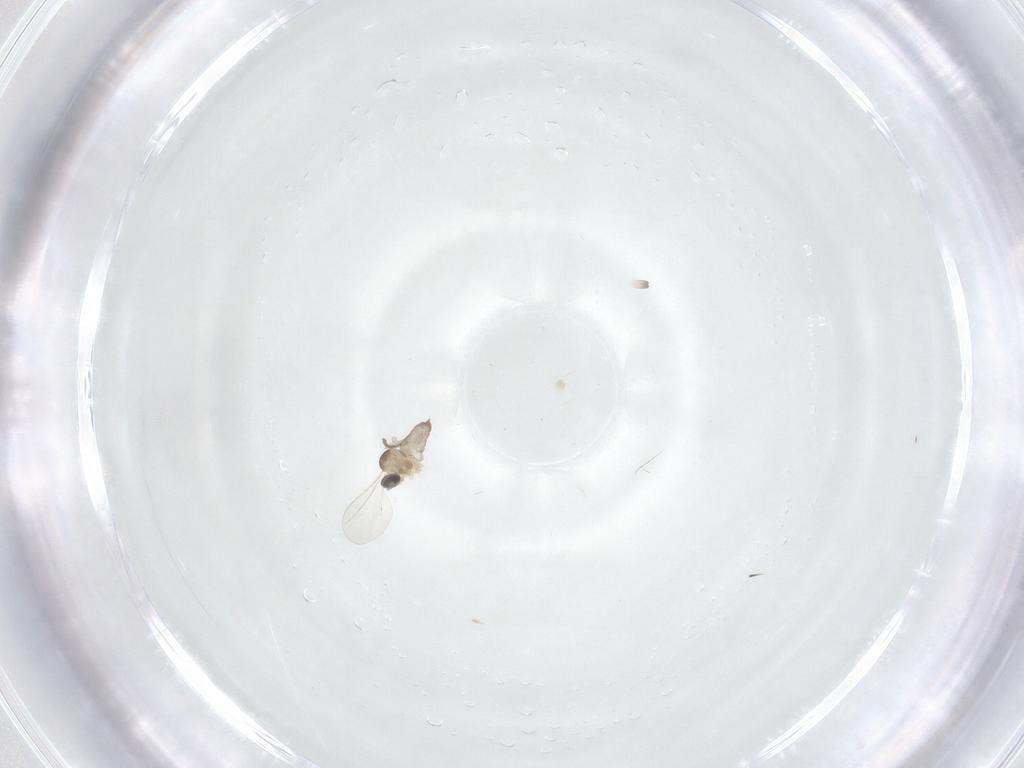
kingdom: Animalia
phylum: Arthropoda
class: Insecta
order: Diptera
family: Cecidomyiidae
